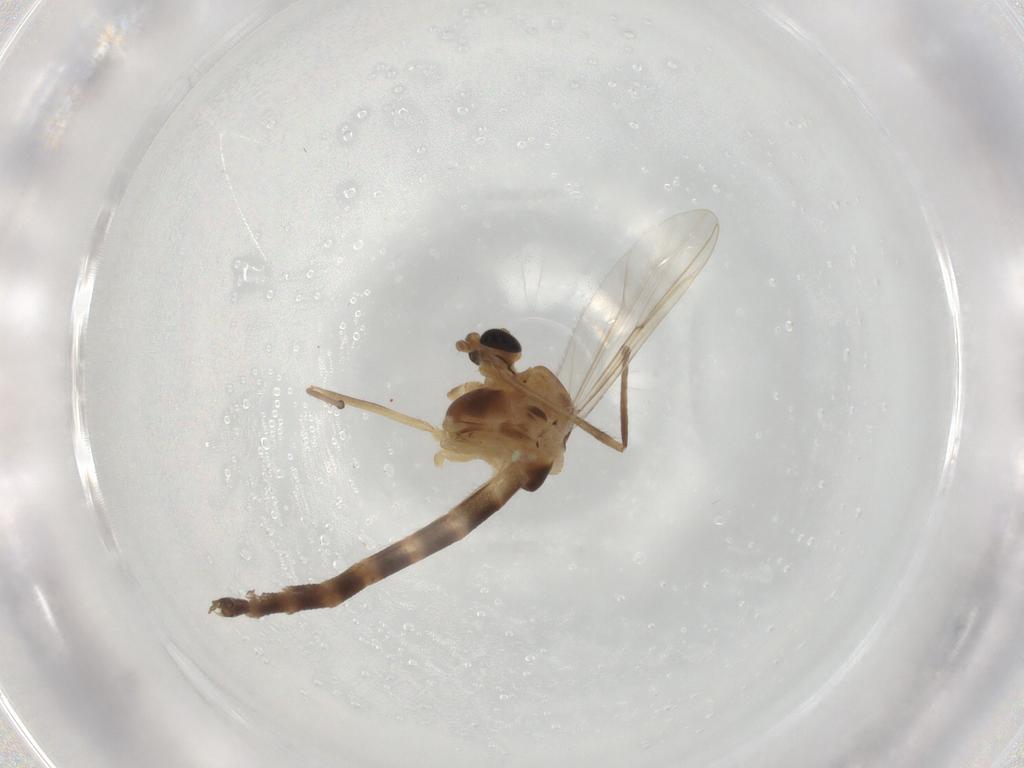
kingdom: Animalia
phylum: Arthropoda
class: Insecta
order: Diptera
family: Chironomidae
